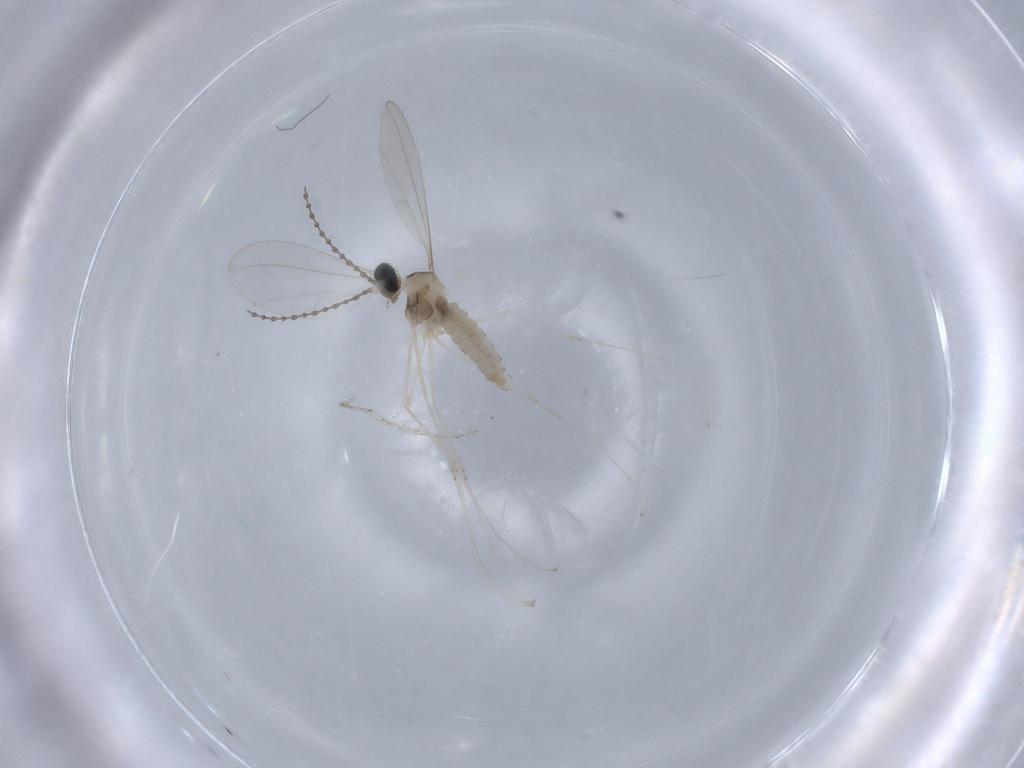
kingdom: Animalia
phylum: Arthropoda
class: Insecta
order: Diptera
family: Cecidomyiidae
